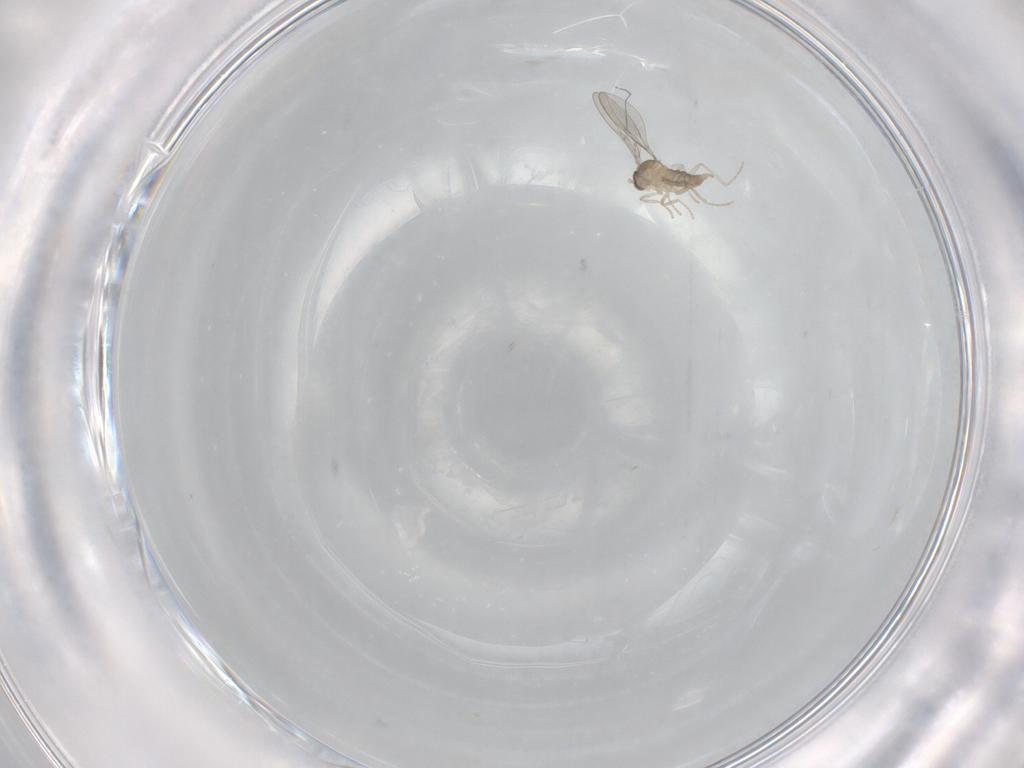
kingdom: Animalia
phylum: Arthropoda
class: Insecta
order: Diptera
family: Cecidomyiidae
